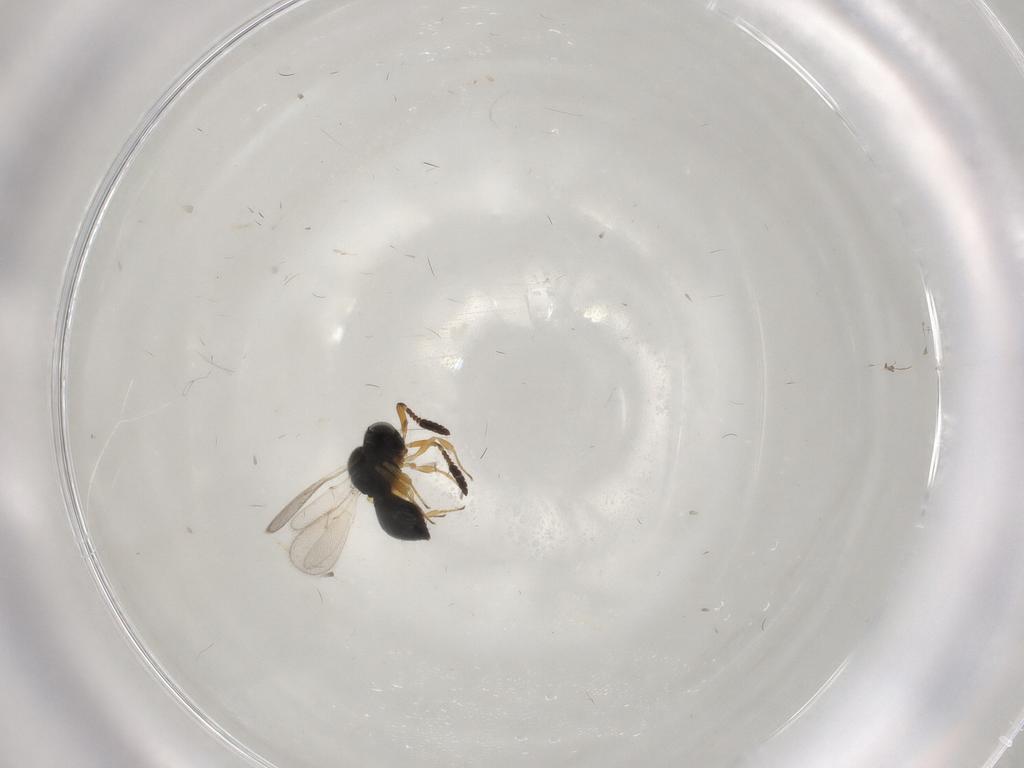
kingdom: Animalia
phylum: Arthropoda
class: Insecta
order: Hymenoptera
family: Scelionidae
